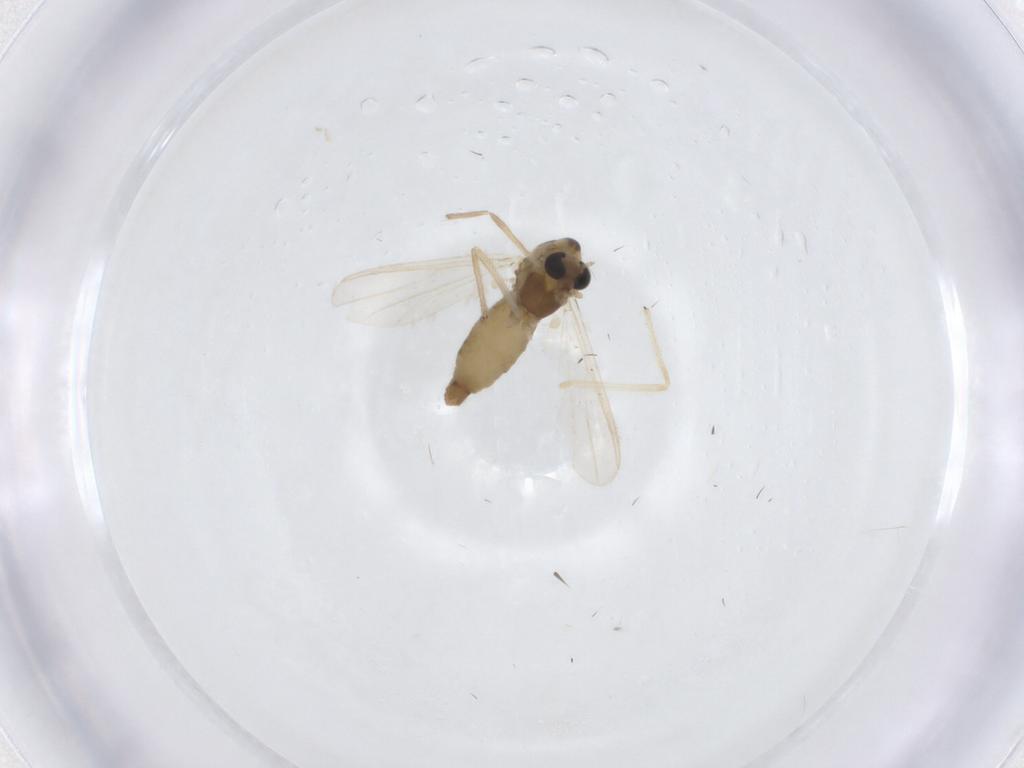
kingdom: Animalia
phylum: Arthropoda
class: Insecta
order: Diptera
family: Chironomidae
